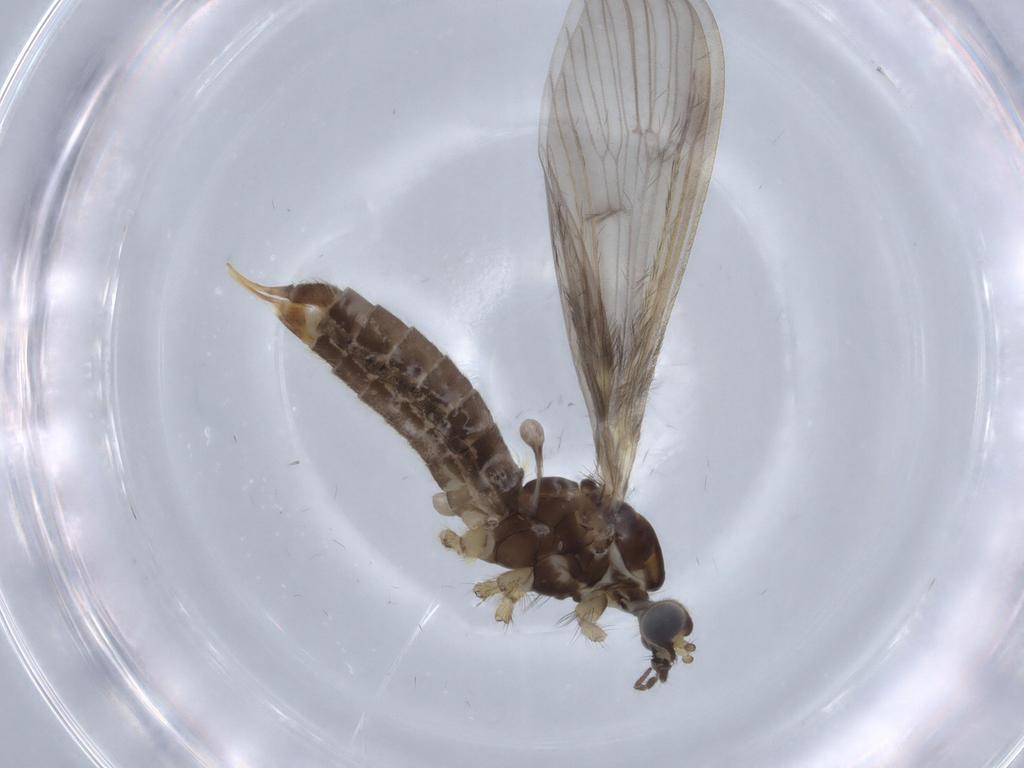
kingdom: Animalia
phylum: Arthropoda
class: Insecta
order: Diptera
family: Limoniidae
